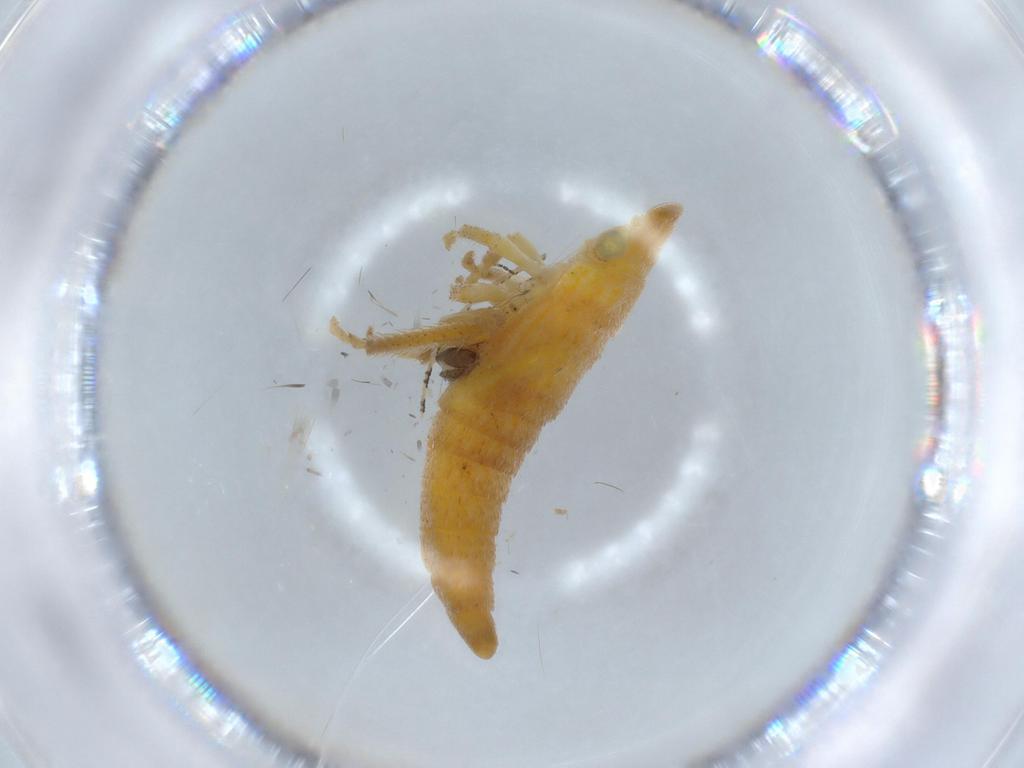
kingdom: Animalia
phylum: Arthropoda
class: Insecta
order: Hemiptera
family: Cicadellidae
